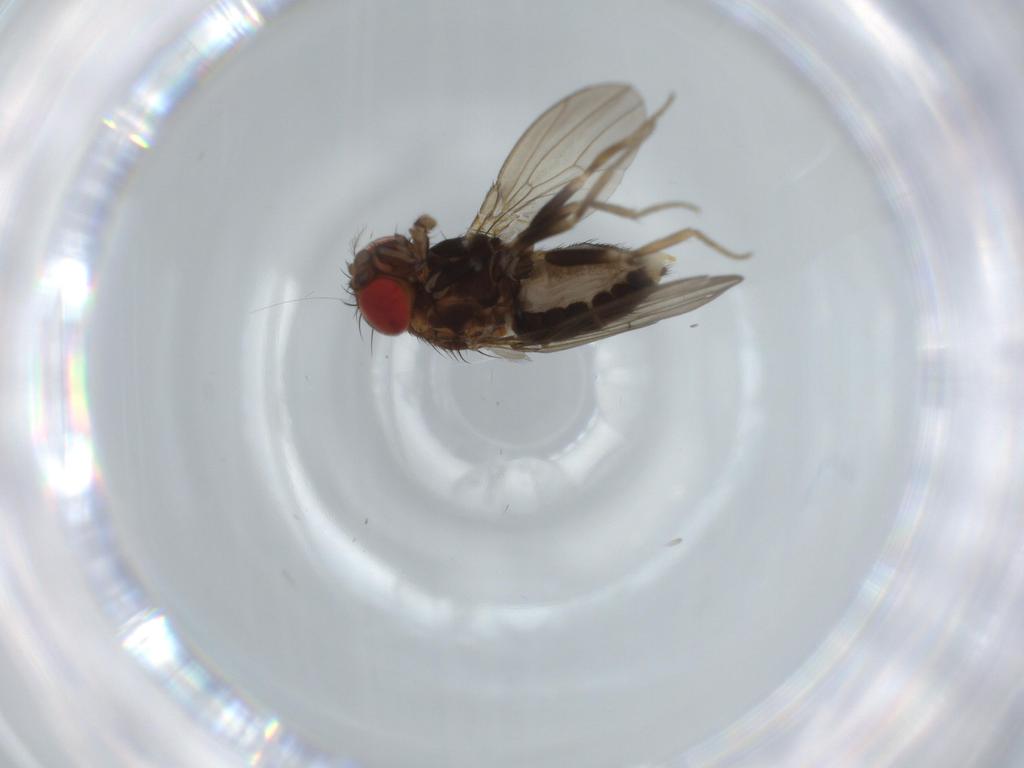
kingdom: Animalia
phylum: Arthropoda
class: Insecta
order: Diptera
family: Drosophilidae
